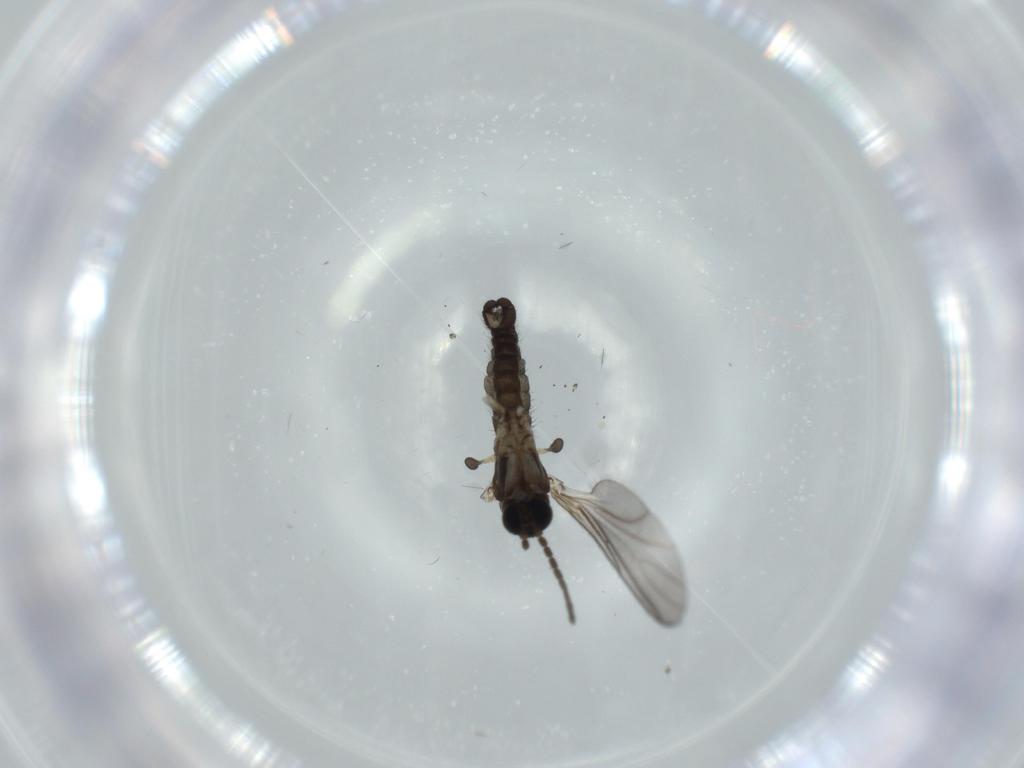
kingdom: Animalia
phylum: Arthropoda
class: Insecta
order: Diptera
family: Sciaridae
